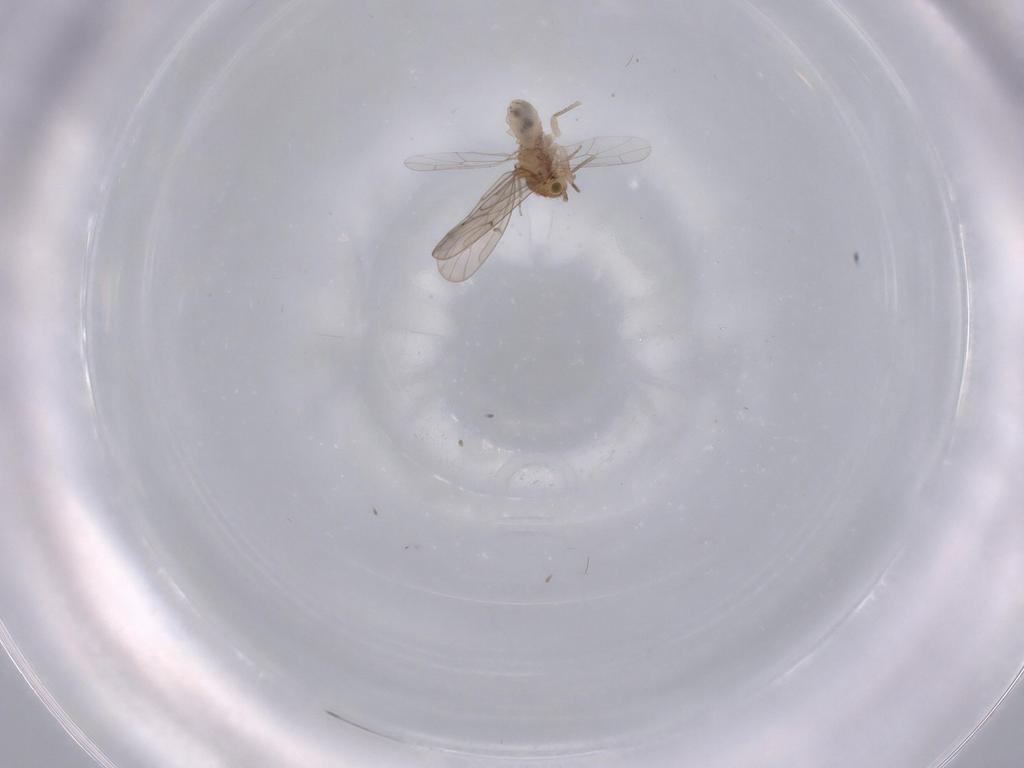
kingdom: Animalia
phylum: Arthropoda
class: Insecta
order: Psocodea
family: Ectopsocidae
